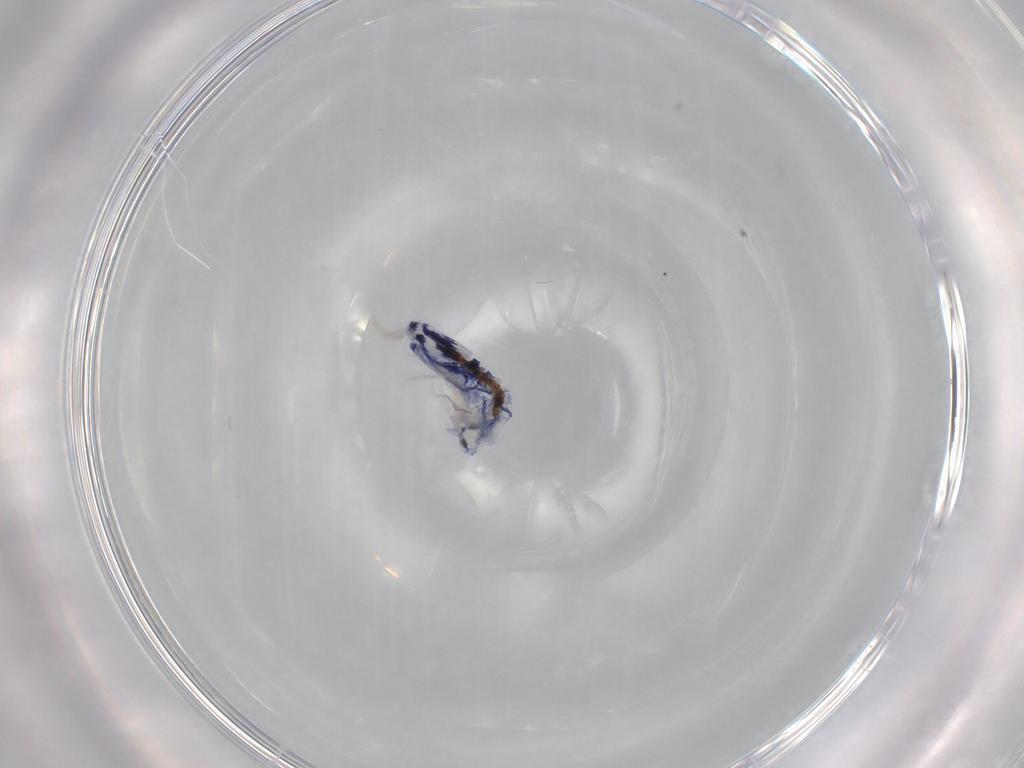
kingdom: Animalia
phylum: Arthropoda
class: Collembola
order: Entomobryomorpha
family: Entomobryidae
